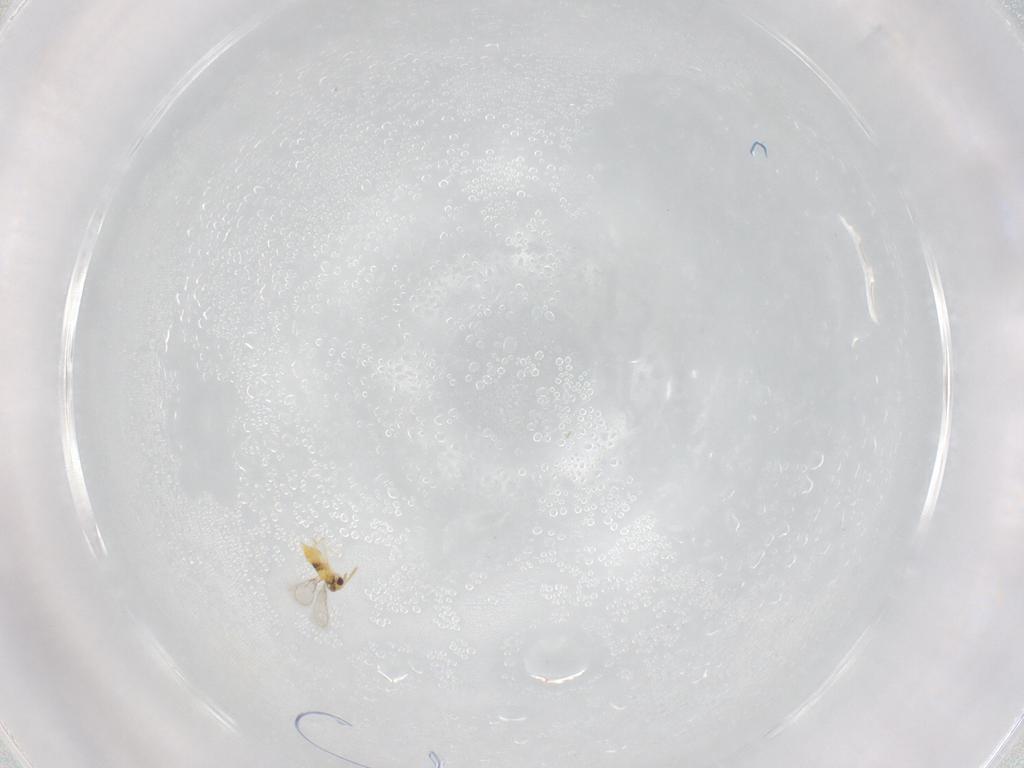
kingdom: Animalia
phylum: Arthropoda
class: Insecta
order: Hymenoptera
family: Aphelinidae
